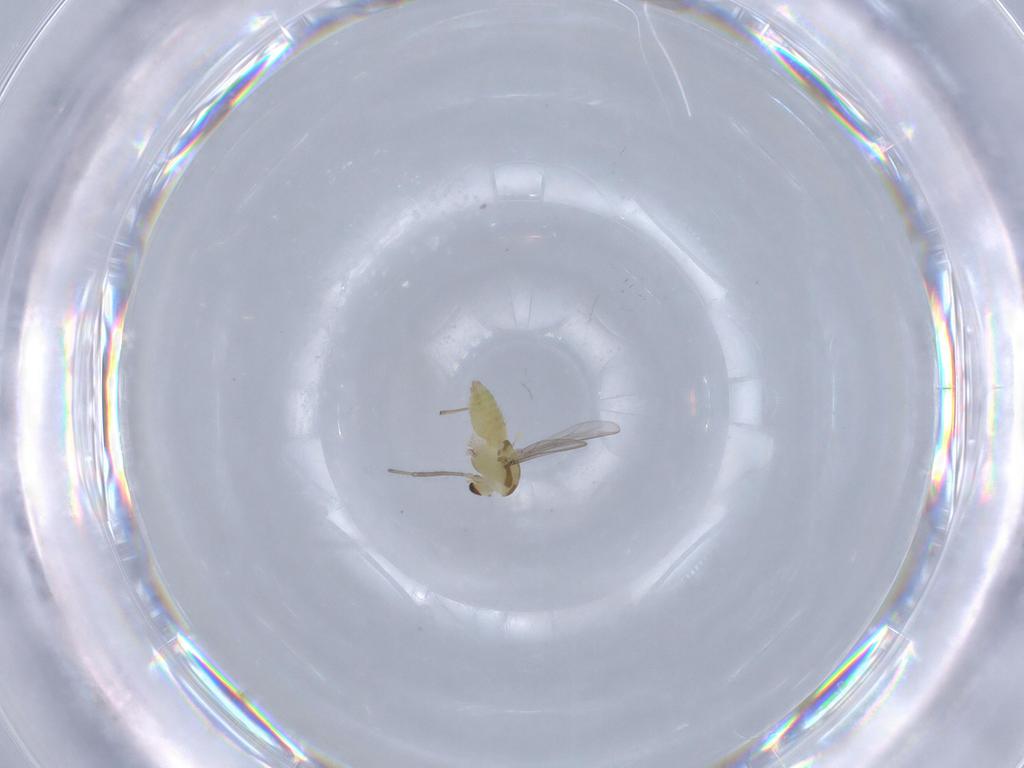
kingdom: Animalia
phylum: Arthropoda
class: Insecta
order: Diptera
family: Chironomidae
